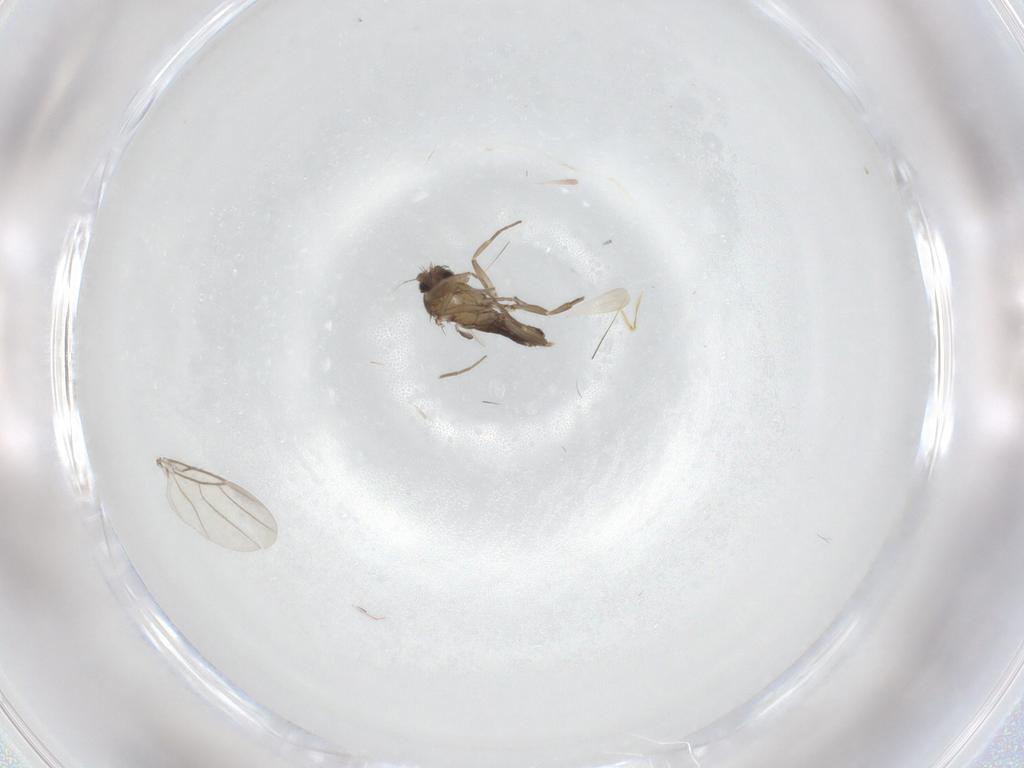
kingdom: Animalia
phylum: Arthropoda
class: Insecta
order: Diptera
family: Phoridae
